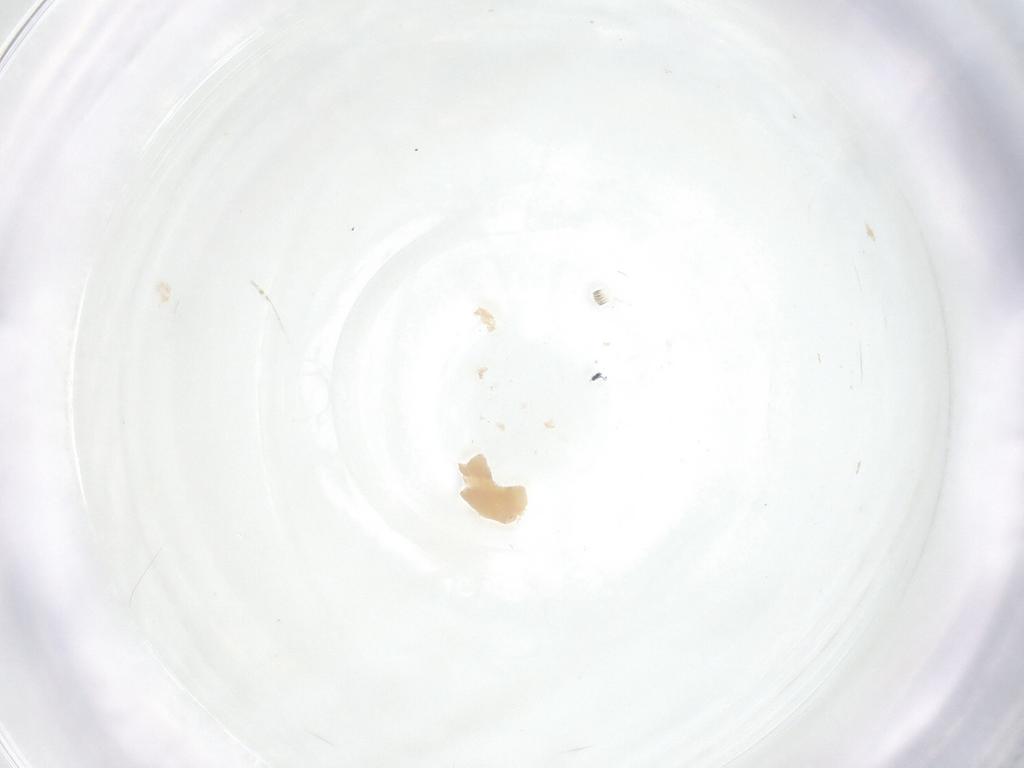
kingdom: Animalia
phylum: Arthropoda
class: Insecta
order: Diptera
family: Fergusoninidae
